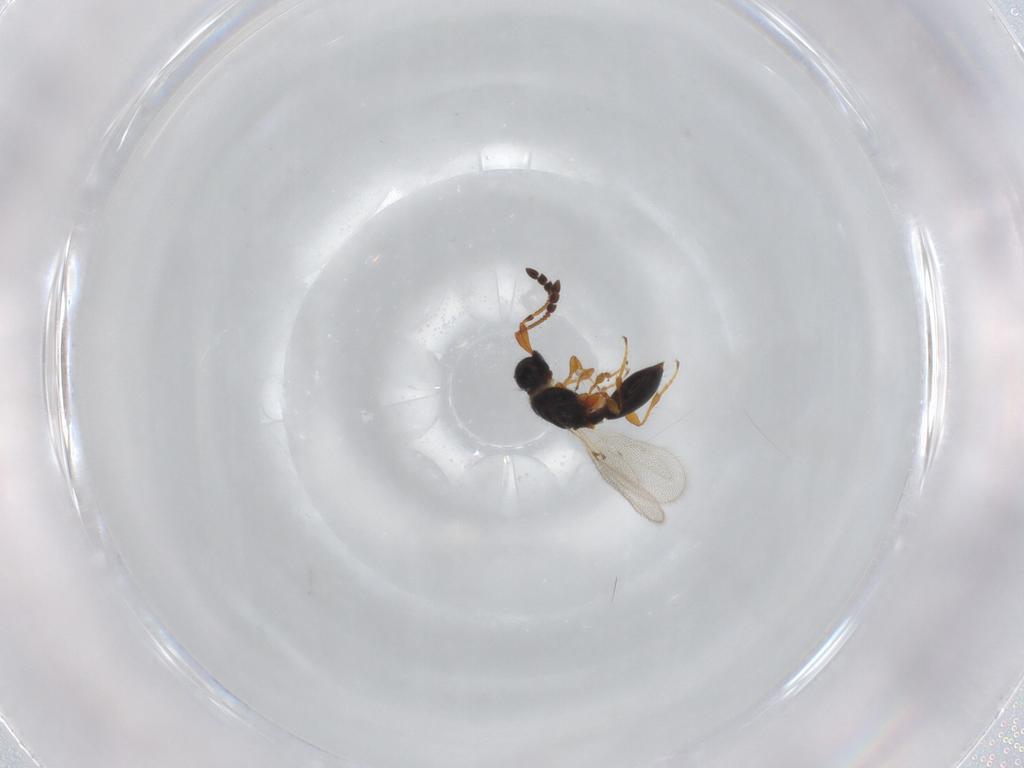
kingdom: Animalia
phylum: Arthropoda
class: Insecta
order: Hymenoptera
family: Diapriidae
